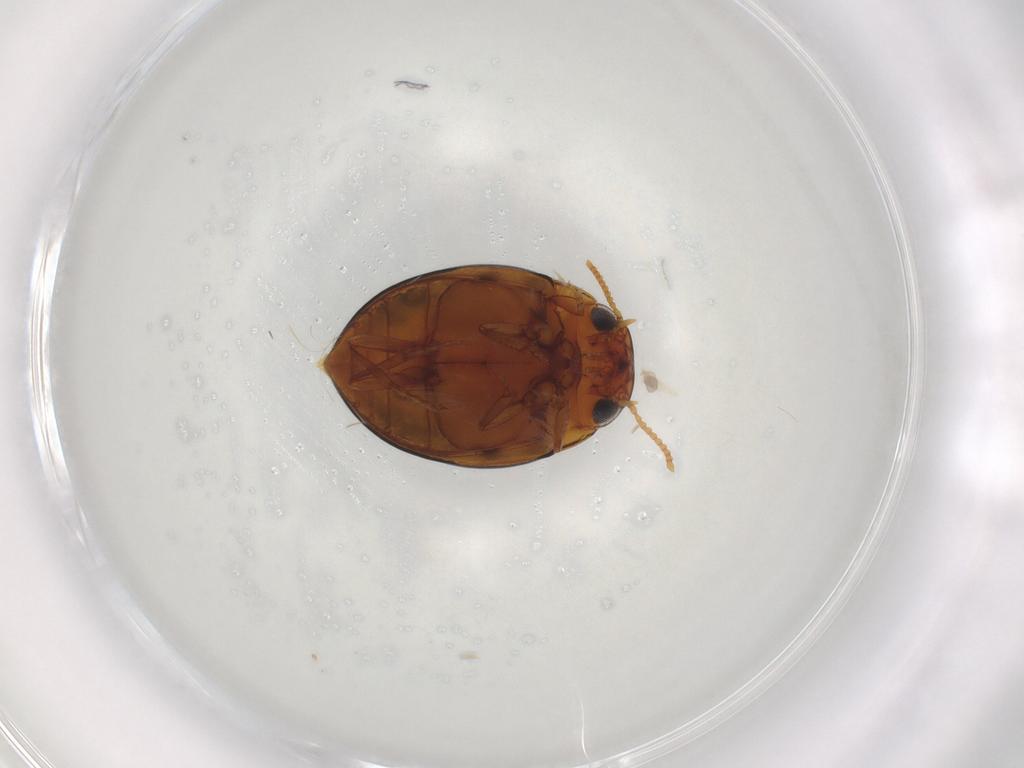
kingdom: Animalia
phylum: Arthropoda
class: Insecta
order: Coleoptera
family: Dytiscidae
